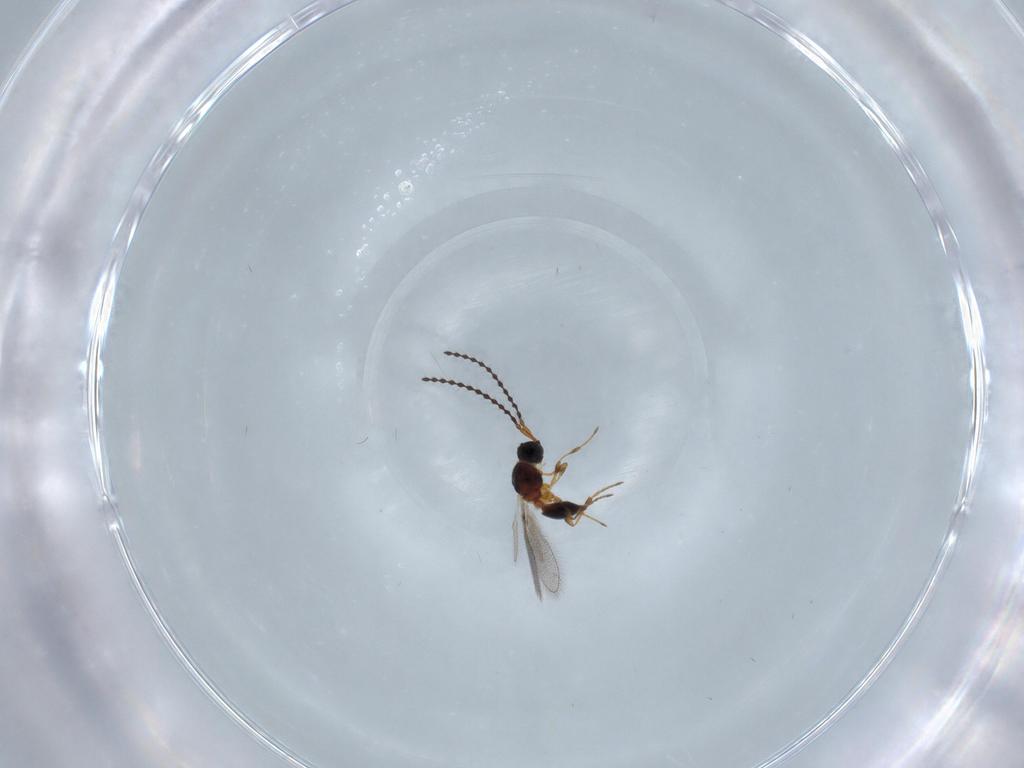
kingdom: Animalia
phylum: Arthropoda
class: Insecta
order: Hymenoptera
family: Diapriidae
